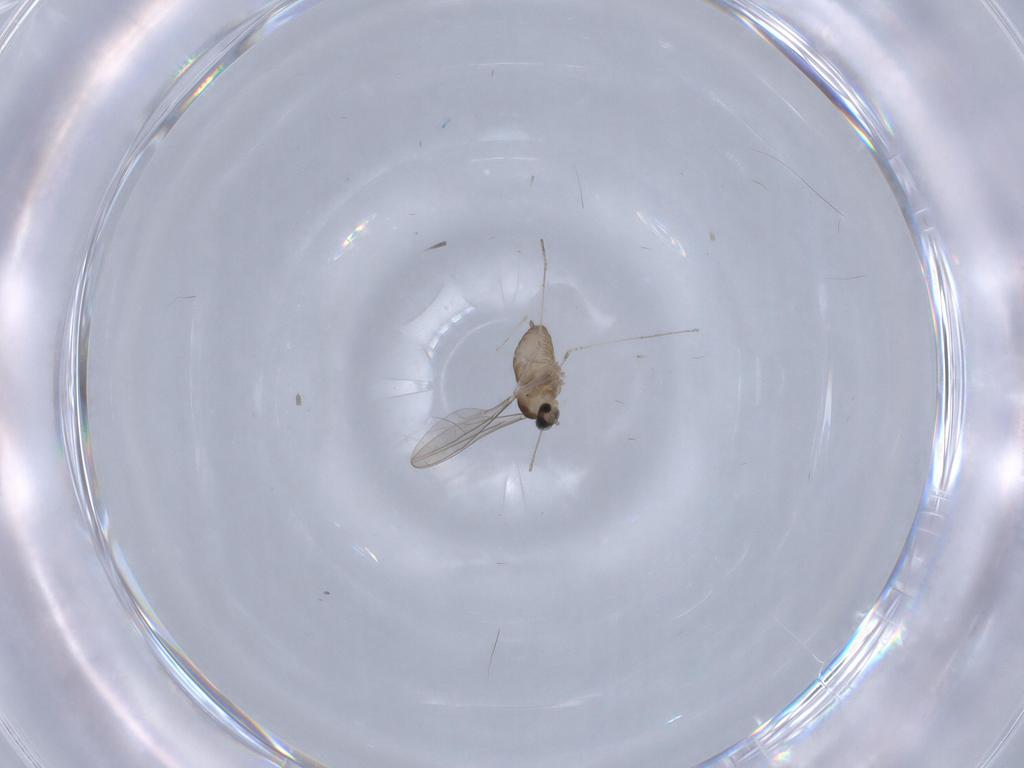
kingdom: Animalia
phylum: Arthropoda
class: Insecta
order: Diptera
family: Cecidomyiidae
